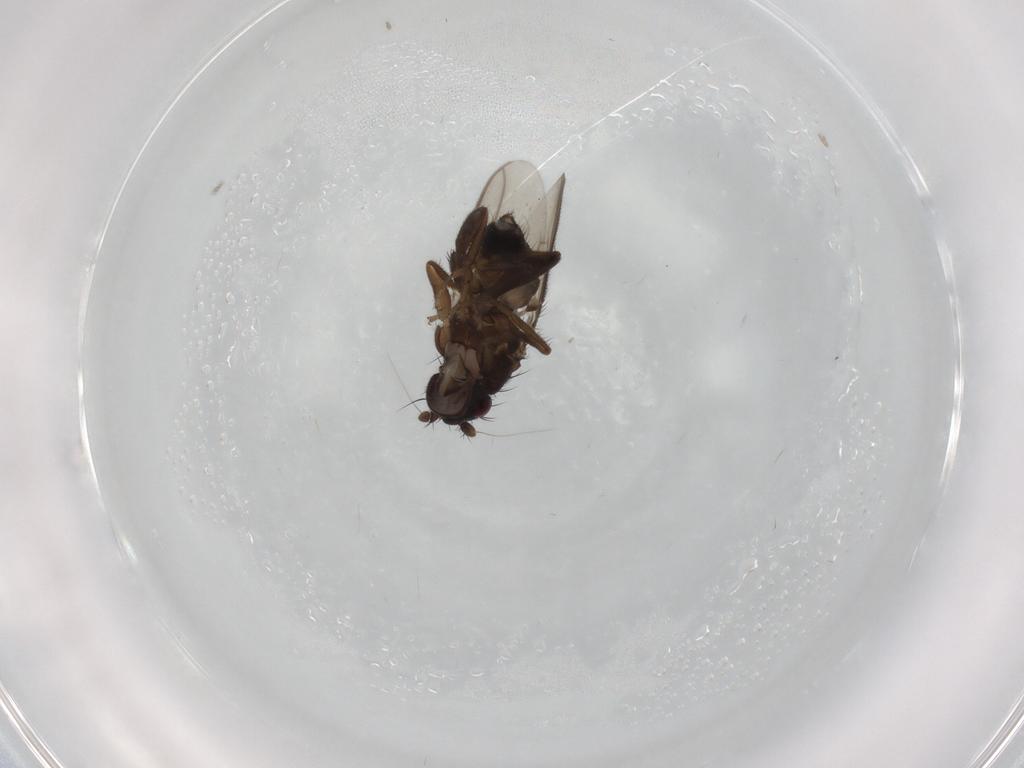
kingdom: Animalia
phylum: Arthropoda
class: Insecta
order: Diptera
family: Sphaeroceridae
